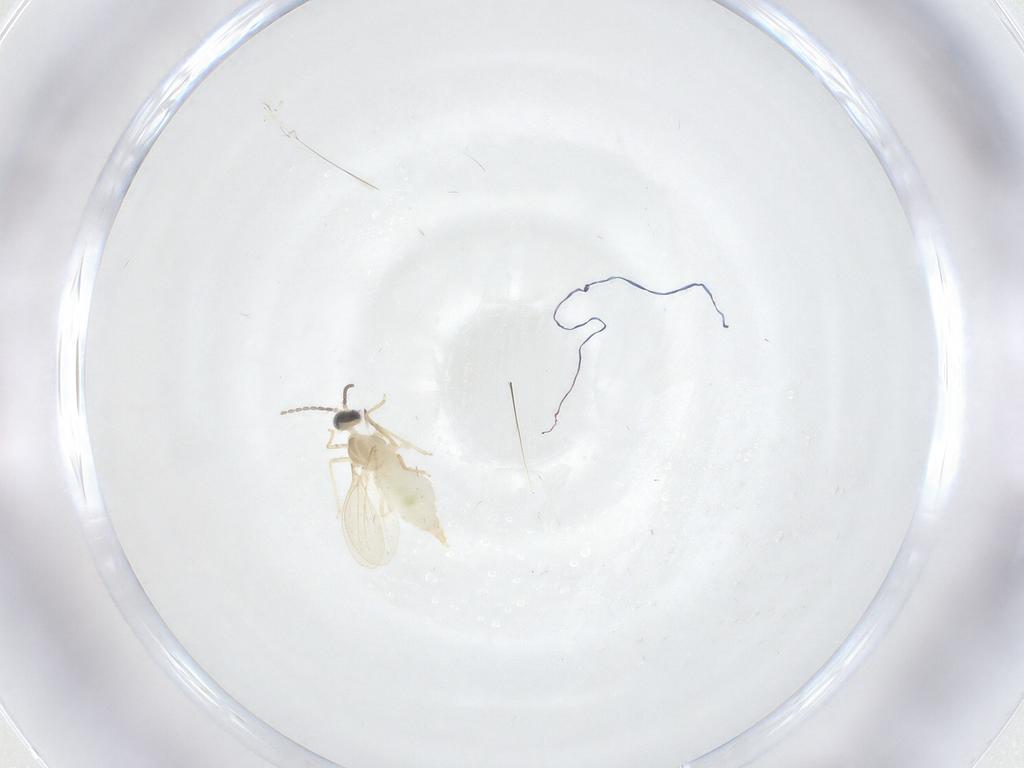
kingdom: Animalia
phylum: Arthropoda
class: Insecta
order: Diptera
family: Cecidomyiidae
